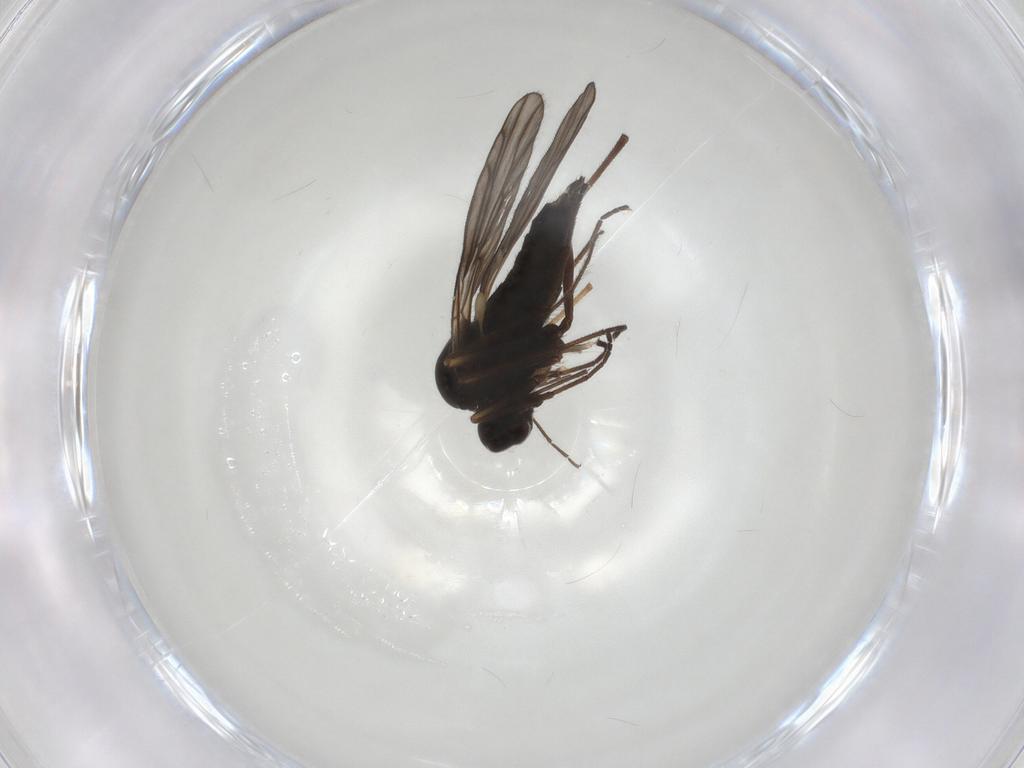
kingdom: Animalia
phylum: Arthropoda
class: Insecta
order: Diptera
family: Empididae
